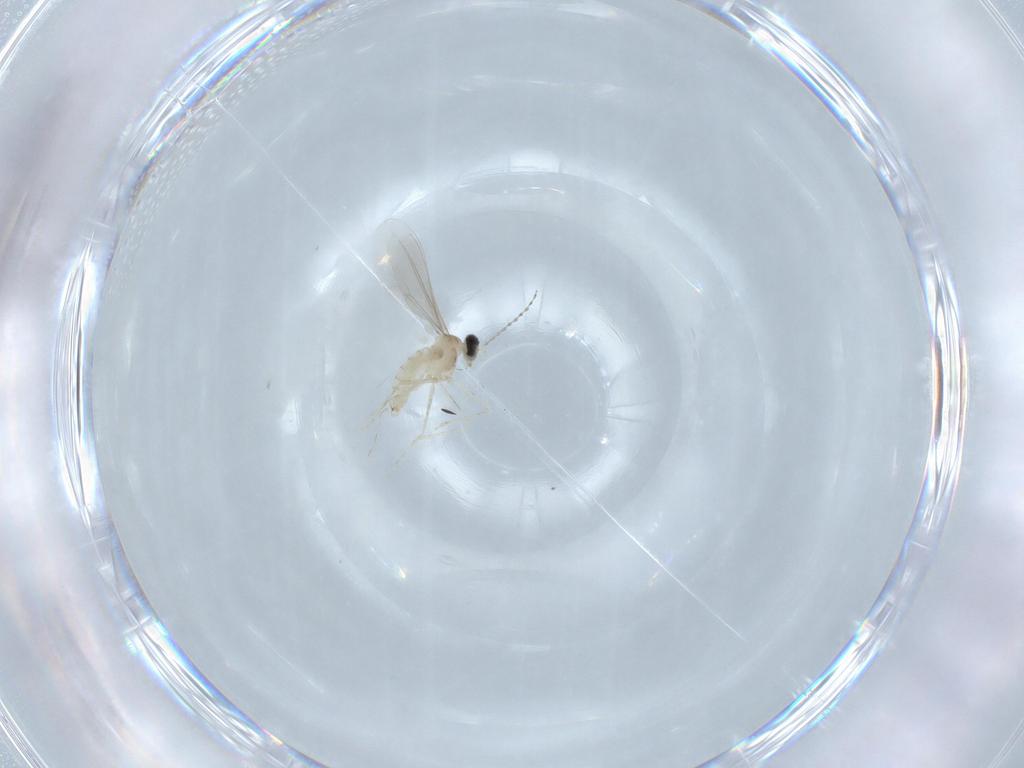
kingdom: Animalia
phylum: Arthropoda
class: Insecta
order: Diptera
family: Cecidomyiidae
